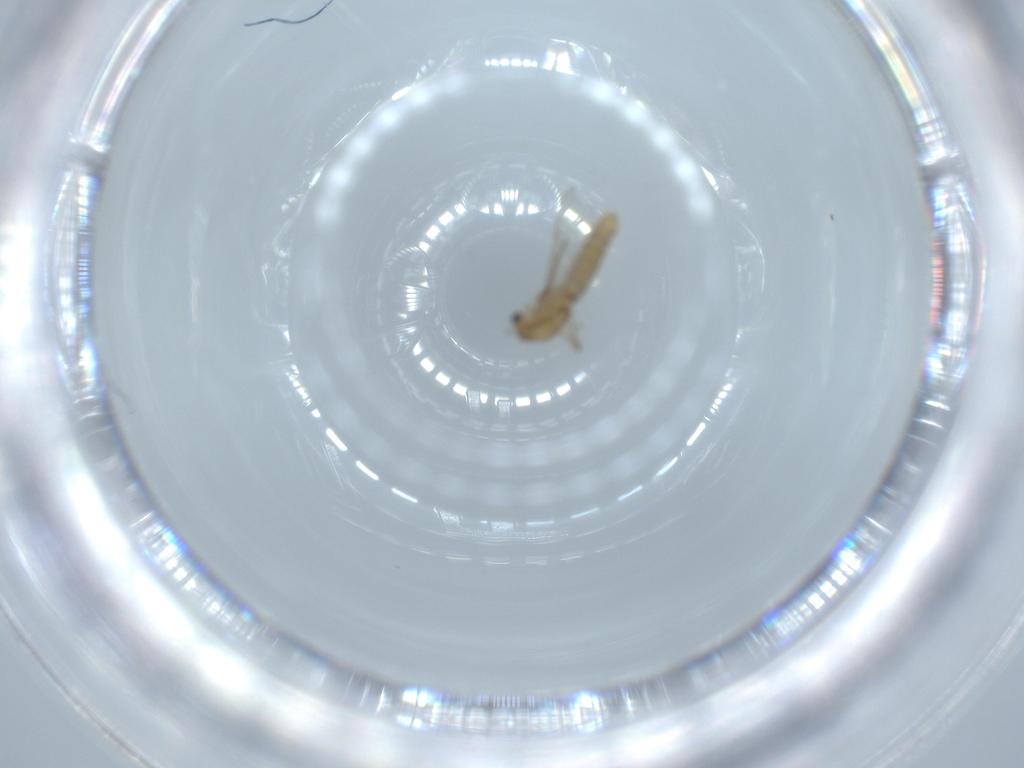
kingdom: Animalia
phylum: Arthropoda
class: Insecta
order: Diptera
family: Chironomidae
